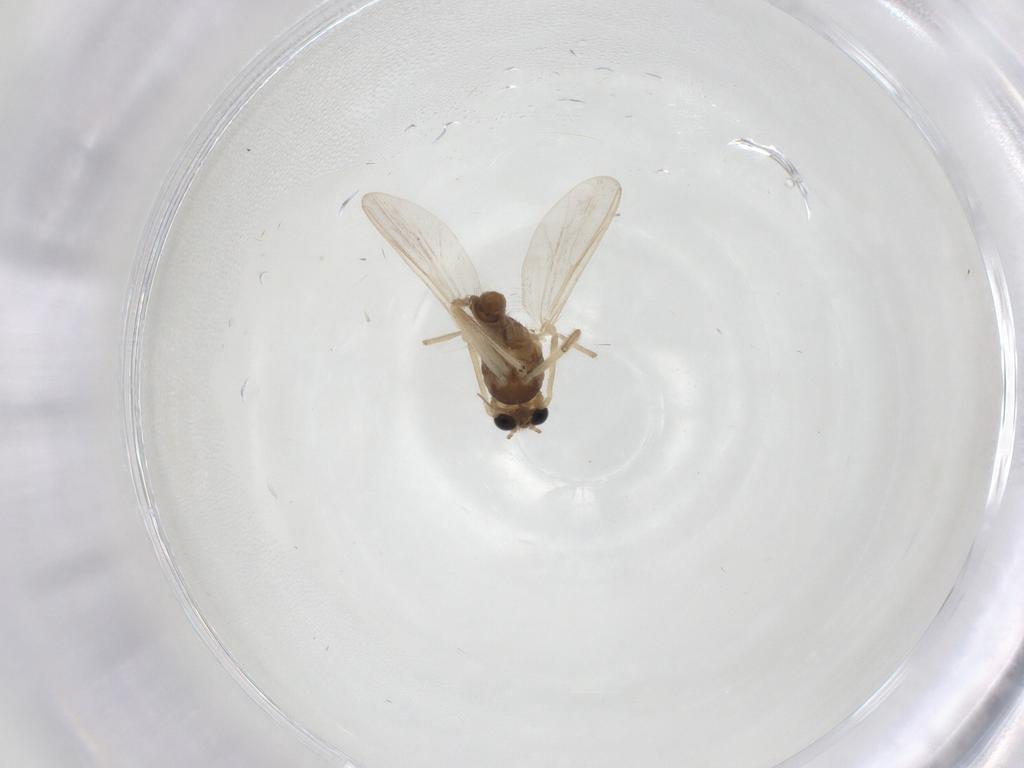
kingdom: Animalia
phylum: Arthropoda
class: Insecta
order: Diptera
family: Chironomidae
